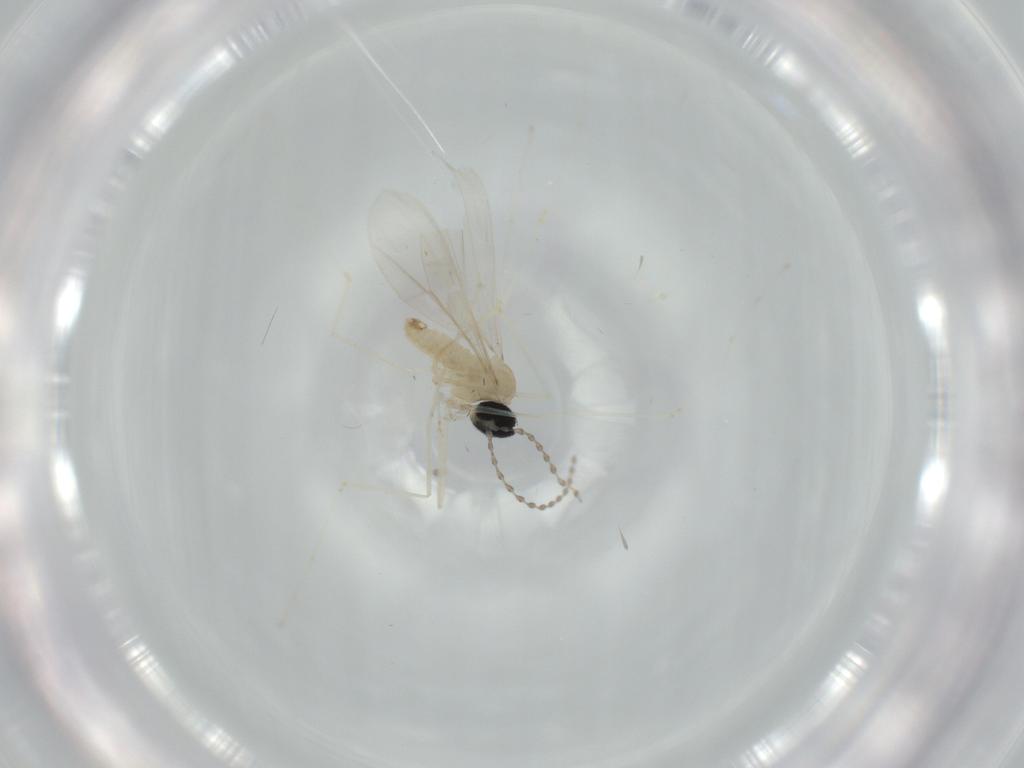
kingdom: Animalia
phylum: Arthropoda
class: Insecta
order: Diptera
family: Cecidomyiidae
